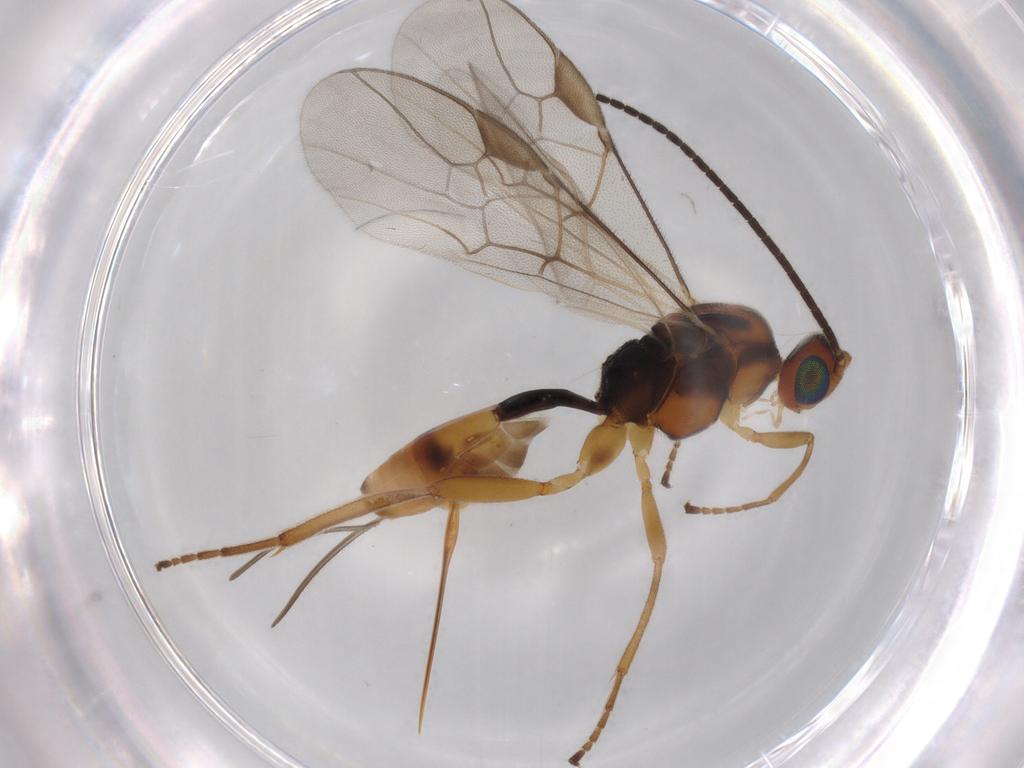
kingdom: Animalia
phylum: Arthropoda
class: Insecta
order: Hymenoptera
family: Braconidae
